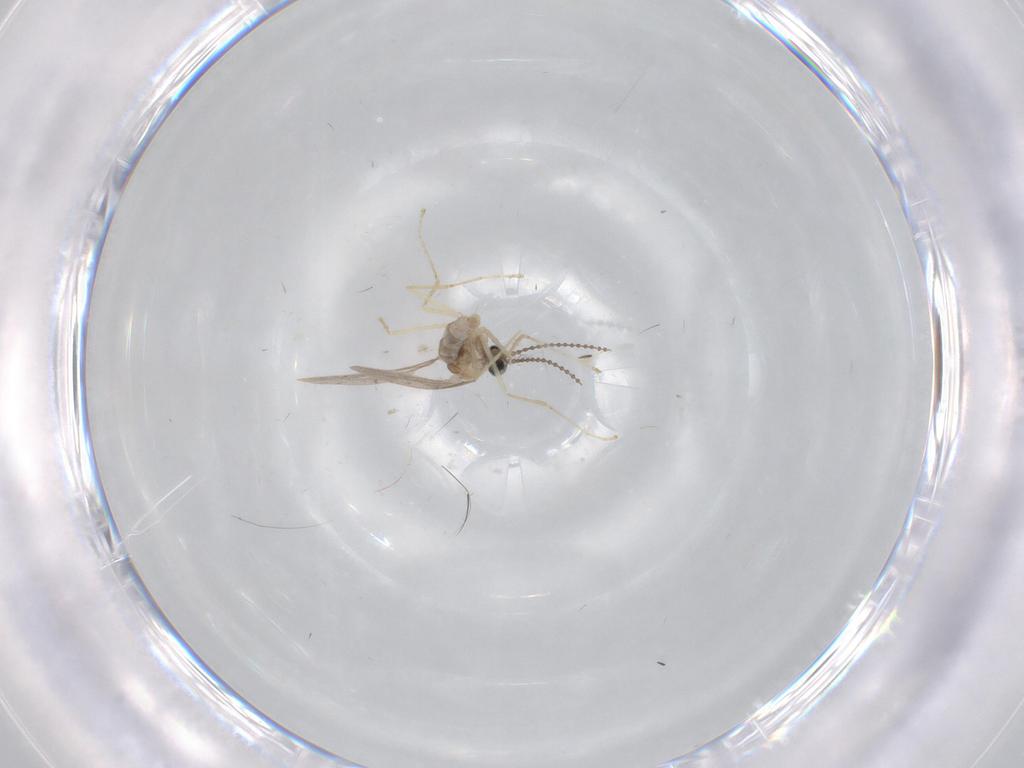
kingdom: Animalia
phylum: Arthropoda
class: Insecta
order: Diptera
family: Cecidomyiidae
